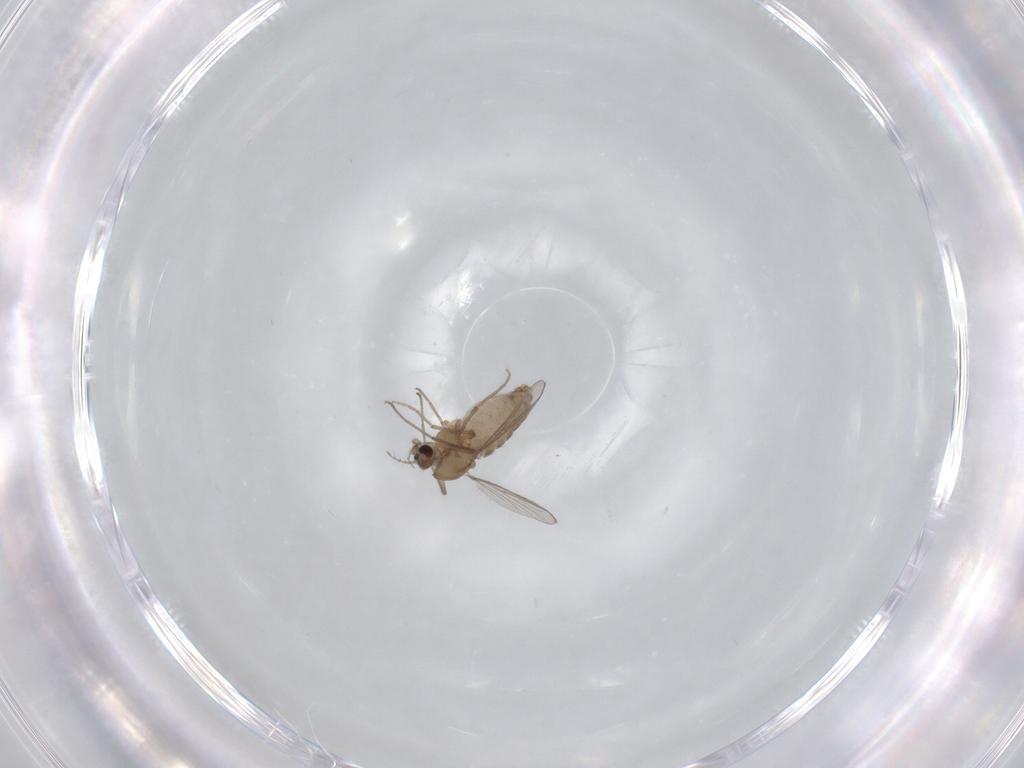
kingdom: Animalia
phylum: Arthropoda
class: Insecta
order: Diptera
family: Chironomidae
